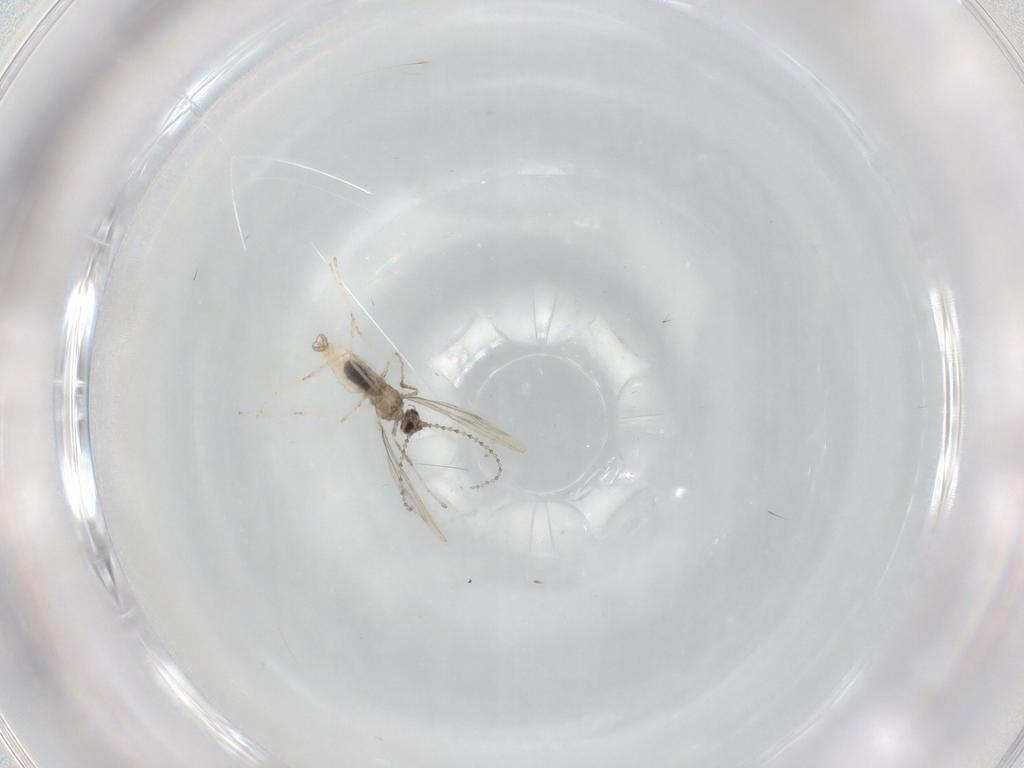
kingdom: Animalia
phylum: Arthropoda
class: Insecta
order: Diptera
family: Cecidomyiidae
